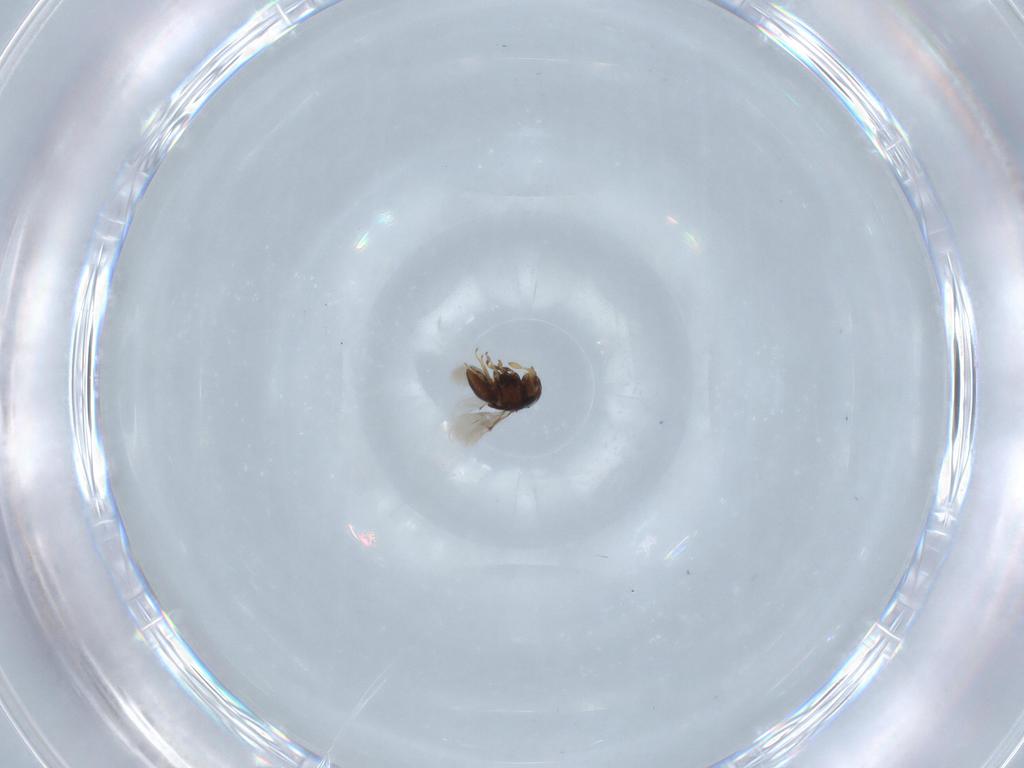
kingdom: Animalia
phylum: Arthropoda
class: Insecta
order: Hymenoptera
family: Scelionidae
